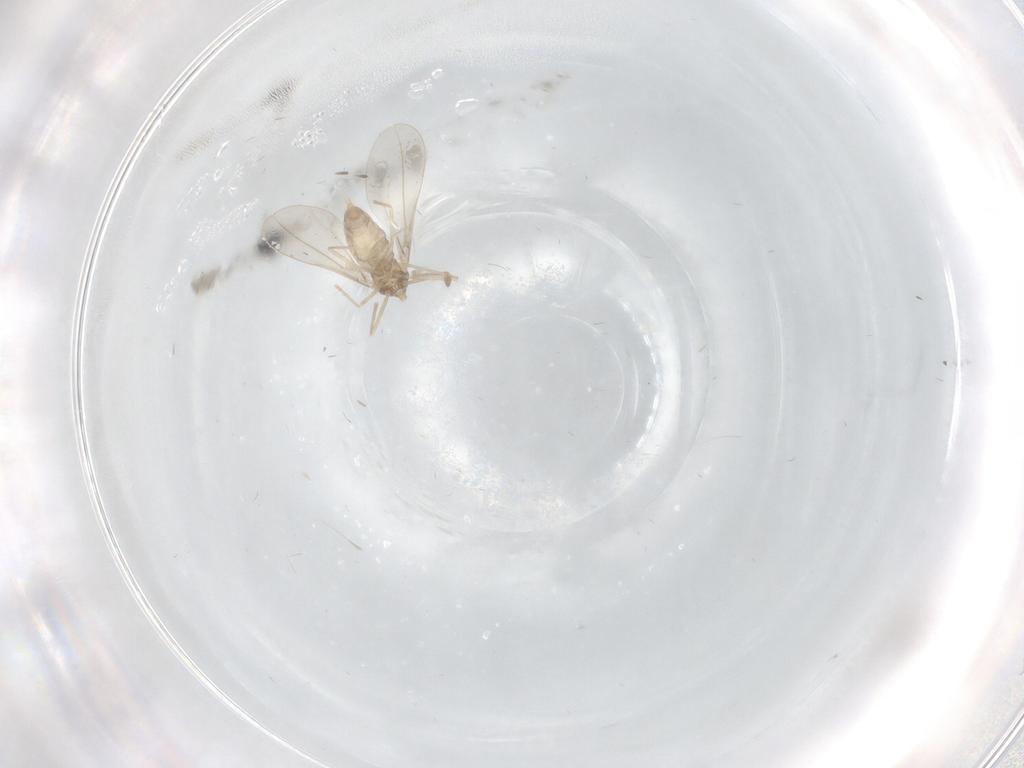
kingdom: Animalia
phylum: Arthropoda
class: Insecta
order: Diptera
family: Cecidomyiidae
